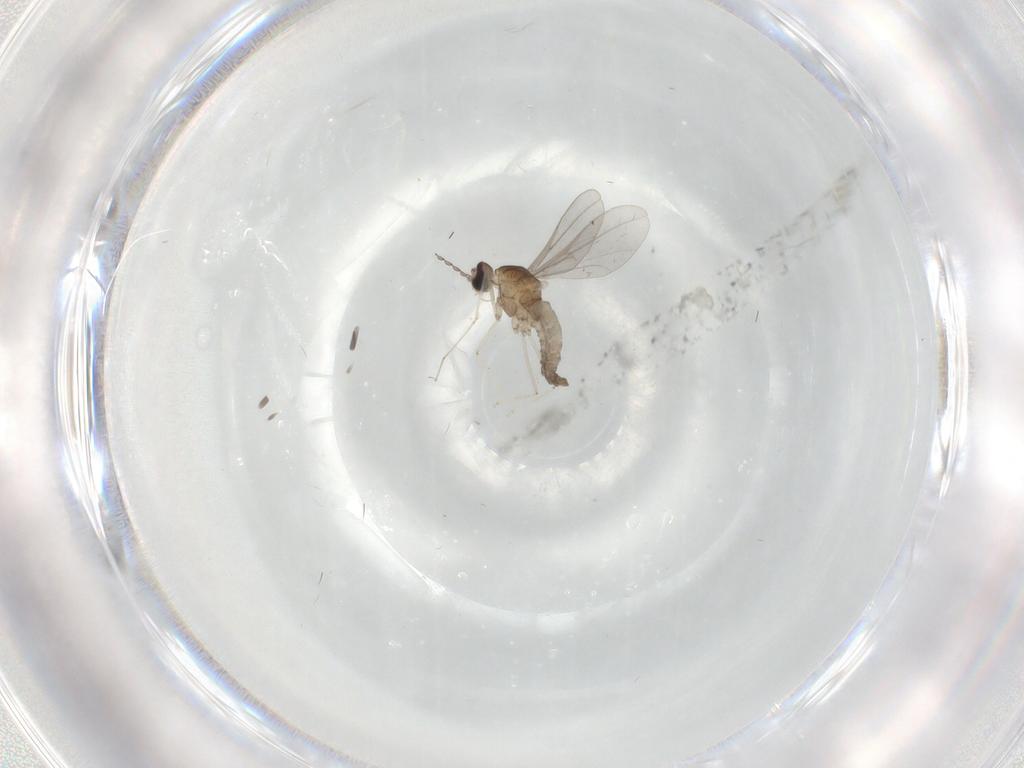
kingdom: Animalia
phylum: Arthropoda
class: Insecta
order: Diptera
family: Cecidomyiidae
